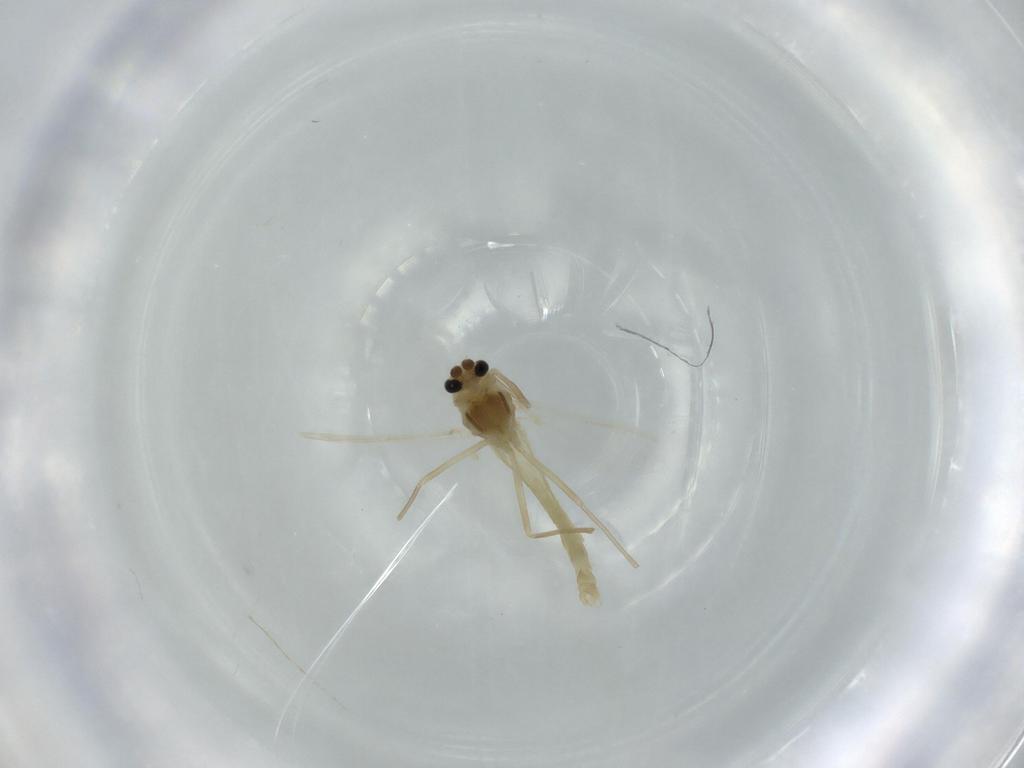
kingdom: Animalia
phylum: Arthropoda
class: Insecta
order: Diptera
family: Chironomidae
